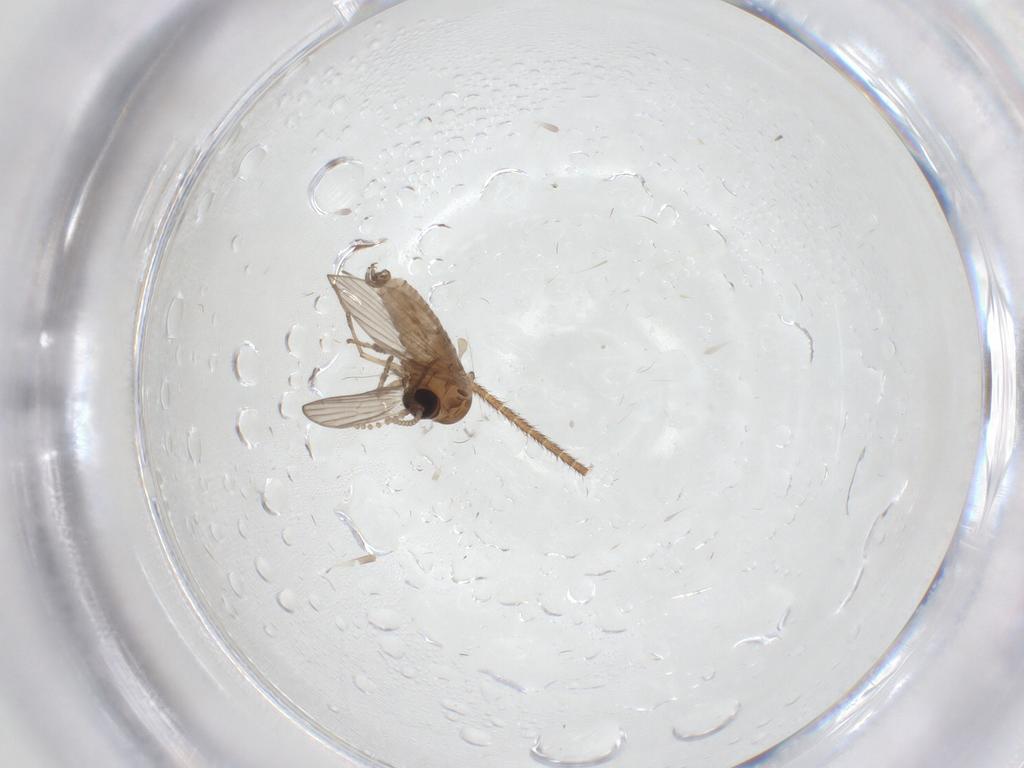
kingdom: Animalia
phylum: Arthropoda
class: Insecta
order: Diptera
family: Psychodidae
